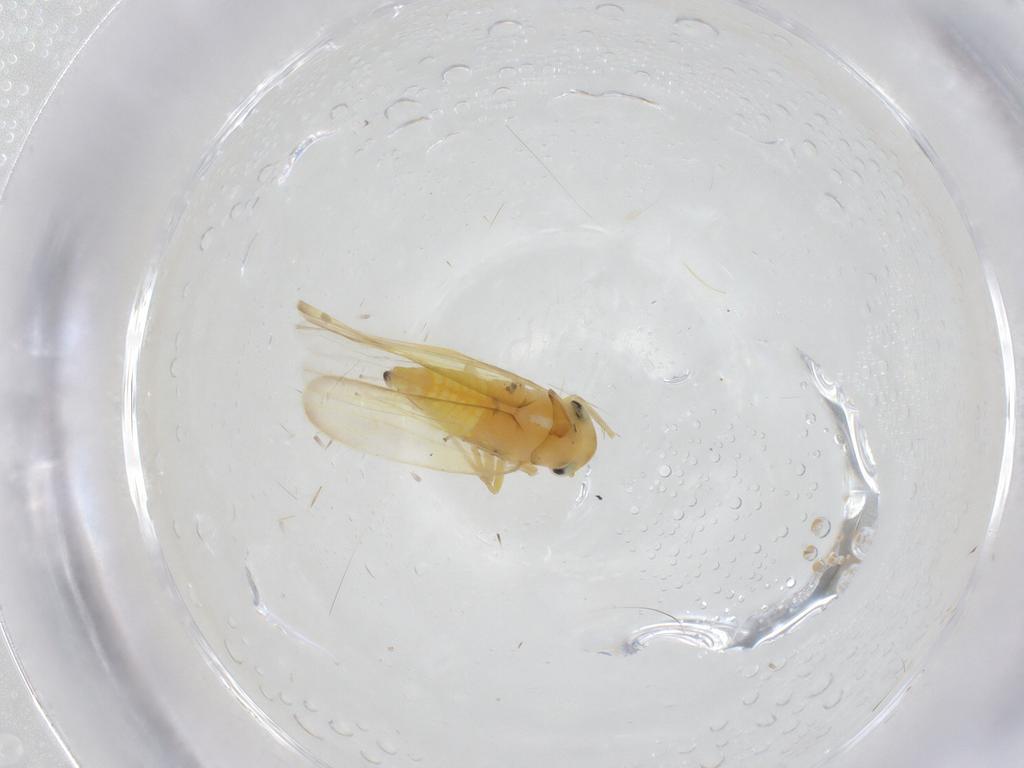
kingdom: Animalia
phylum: Arthropoda
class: Insecta
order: Hemiptera
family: Cicadellidae
